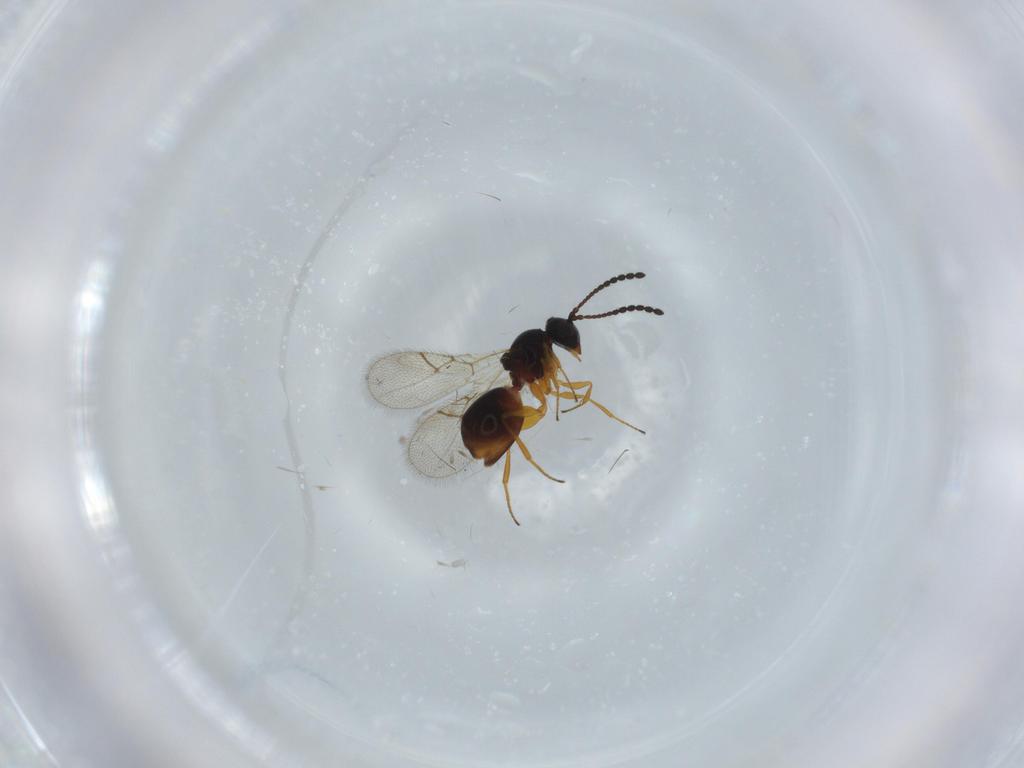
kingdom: Animalia
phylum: Arthropoda
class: Insecta
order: Hymenoptera
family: Figitidae
